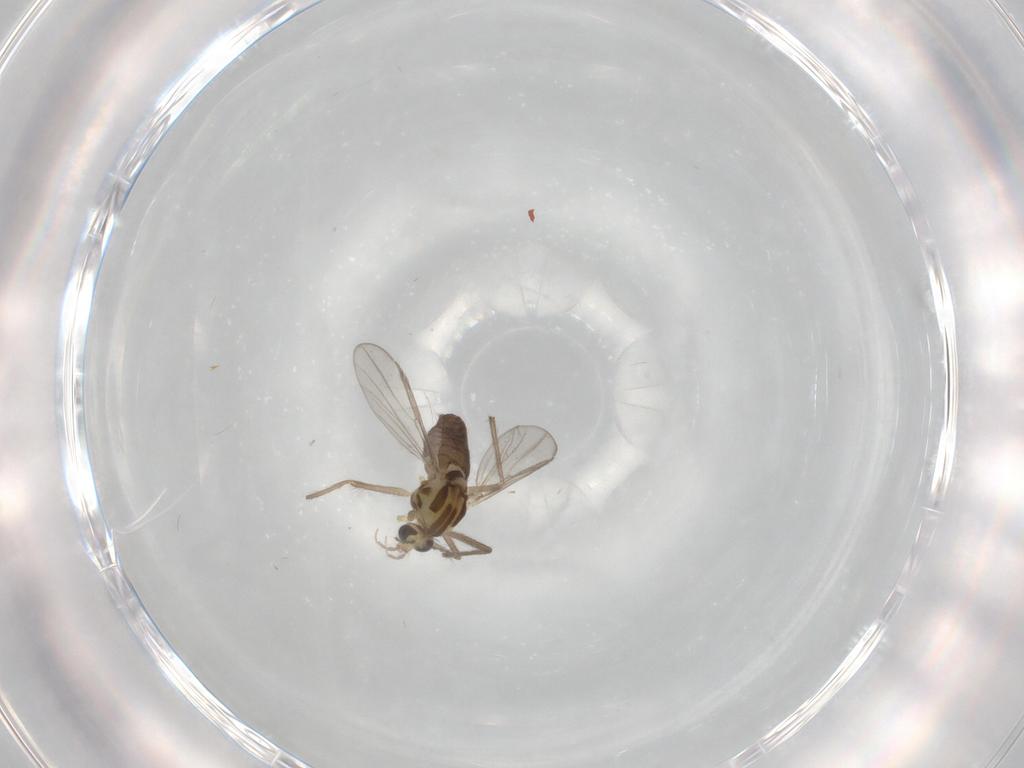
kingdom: Animalia
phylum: Arthropoda
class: Insecta
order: Diptera
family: Chironomidae
